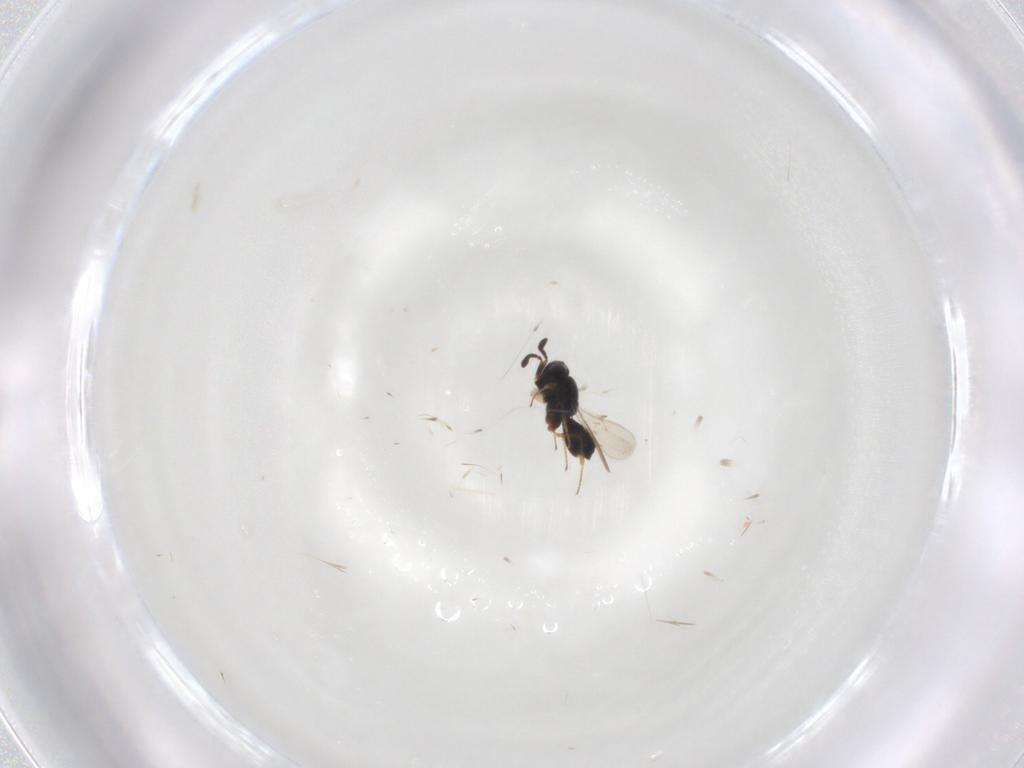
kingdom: Animalia
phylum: Arthropoda
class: Insecta
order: Hymenoptera
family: Scelionidae
